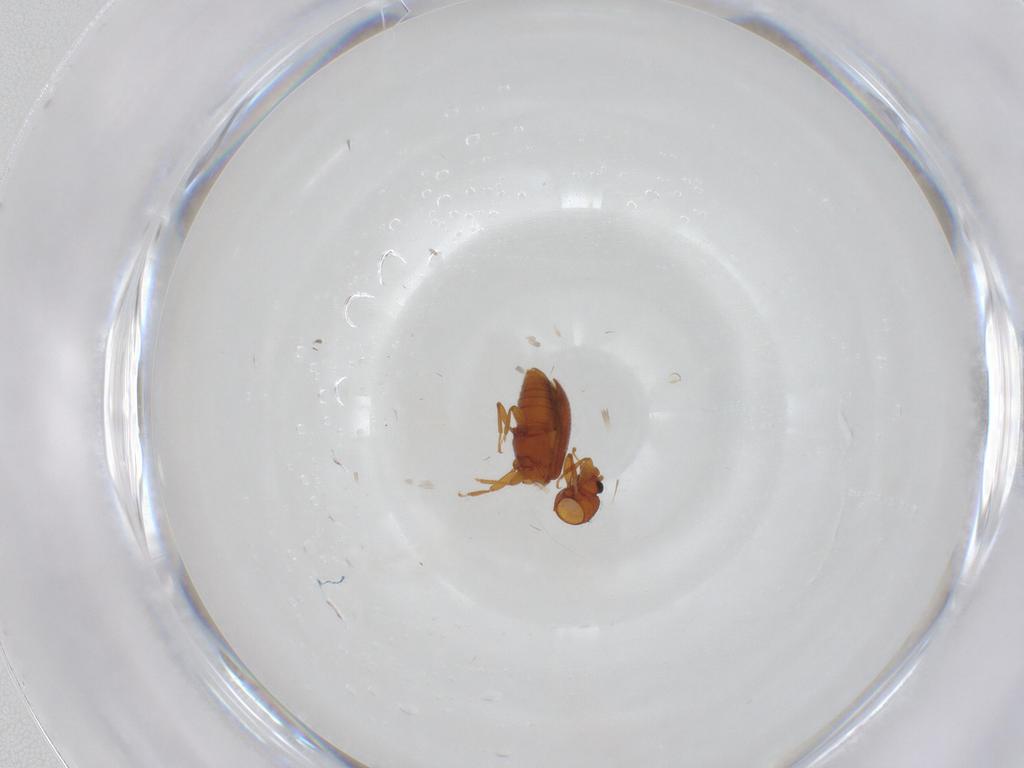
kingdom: Animalia
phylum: Arthropoda
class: Insecta
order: Coleoptera
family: Latridiidae
